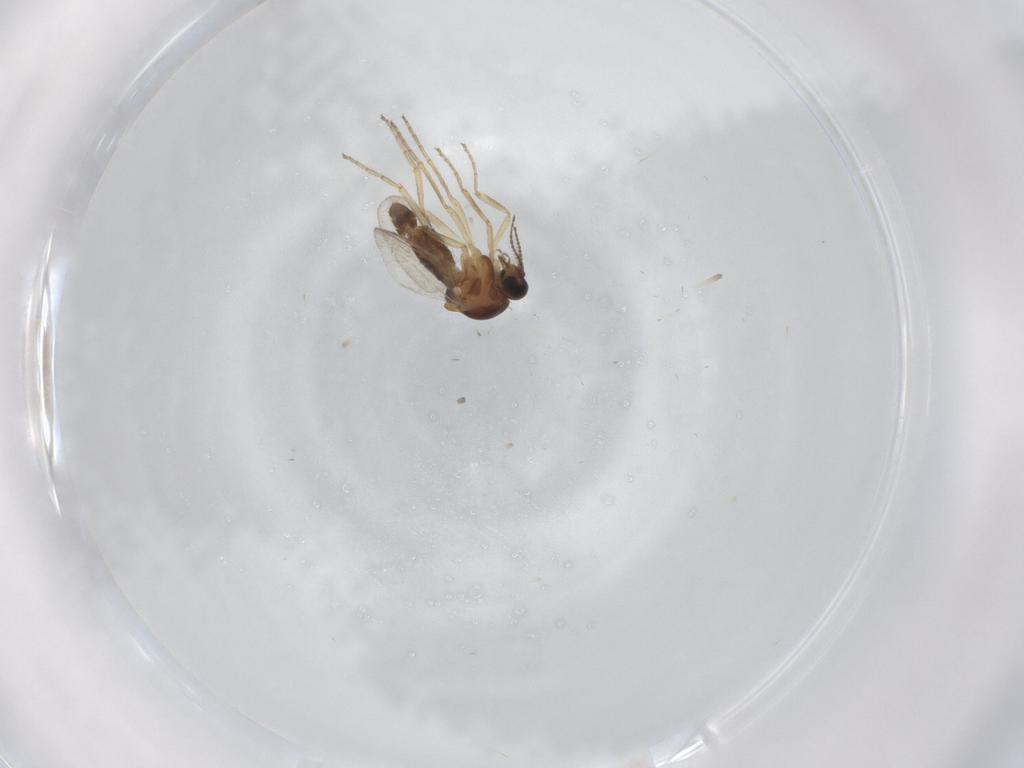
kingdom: Animalia
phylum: Arthropoda
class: Insecta
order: Diptera
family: Ceratopogonidae
